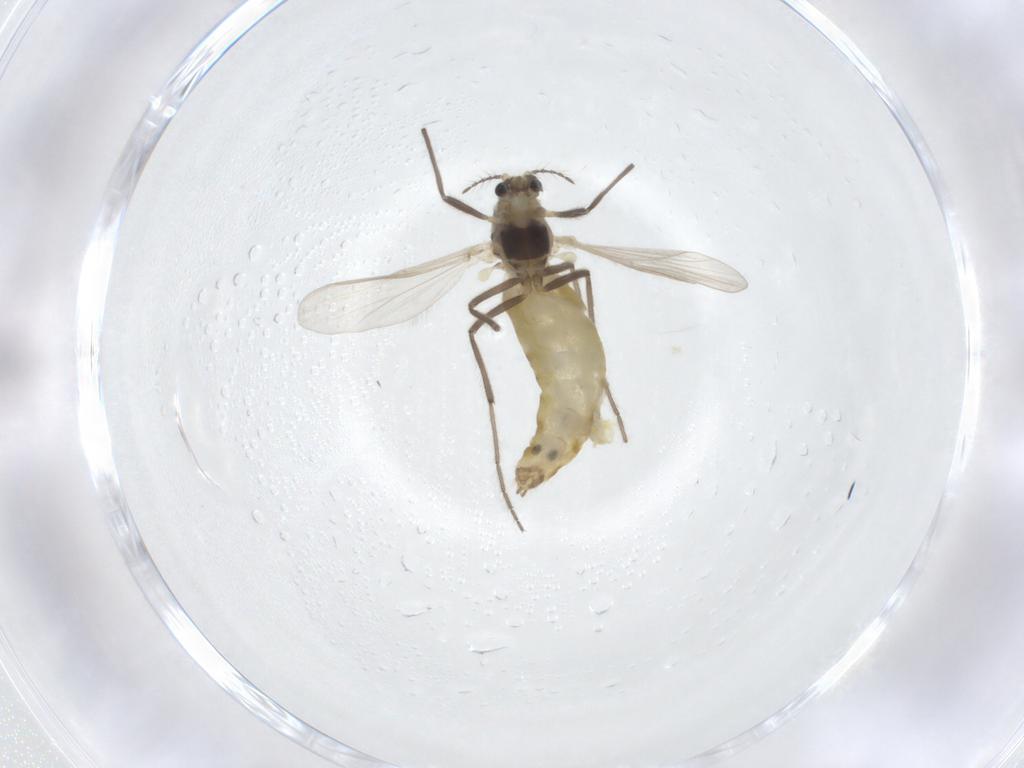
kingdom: Animalia
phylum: Arthropoda
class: Insecta
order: Diptera
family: Chironomidae
